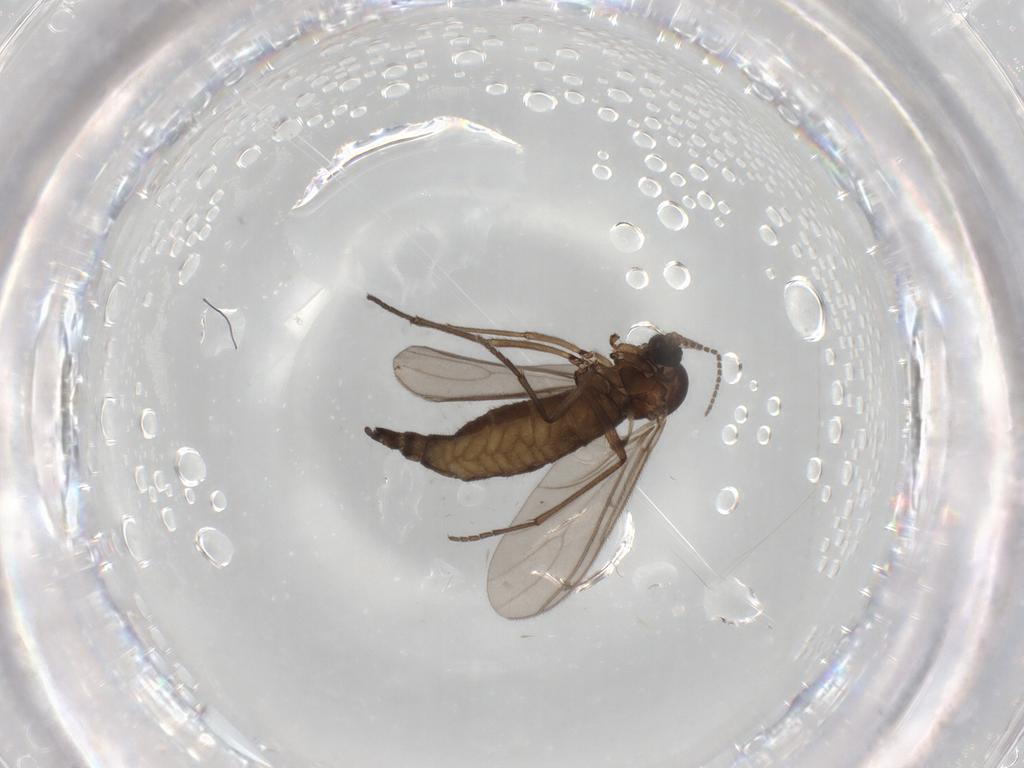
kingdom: Animalia
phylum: Arthropoda
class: Insecta
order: Diptera
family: Sciaridae
